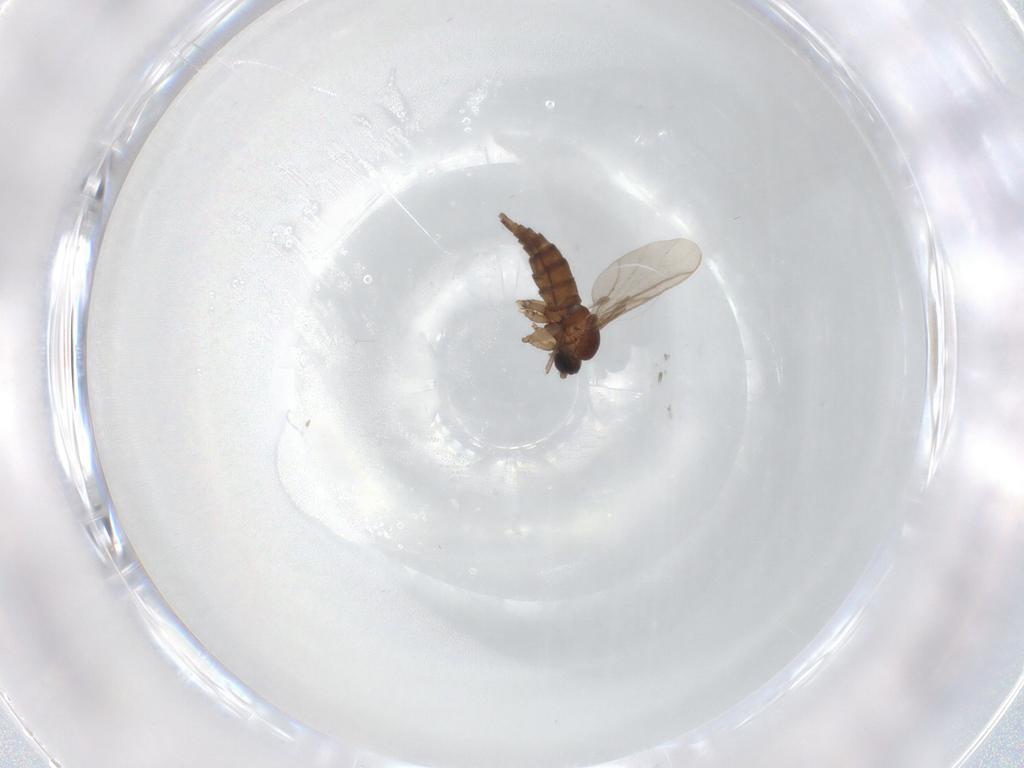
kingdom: Animalia
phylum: Arthropoda
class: Insecta
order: Diptera
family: Sciaridae
